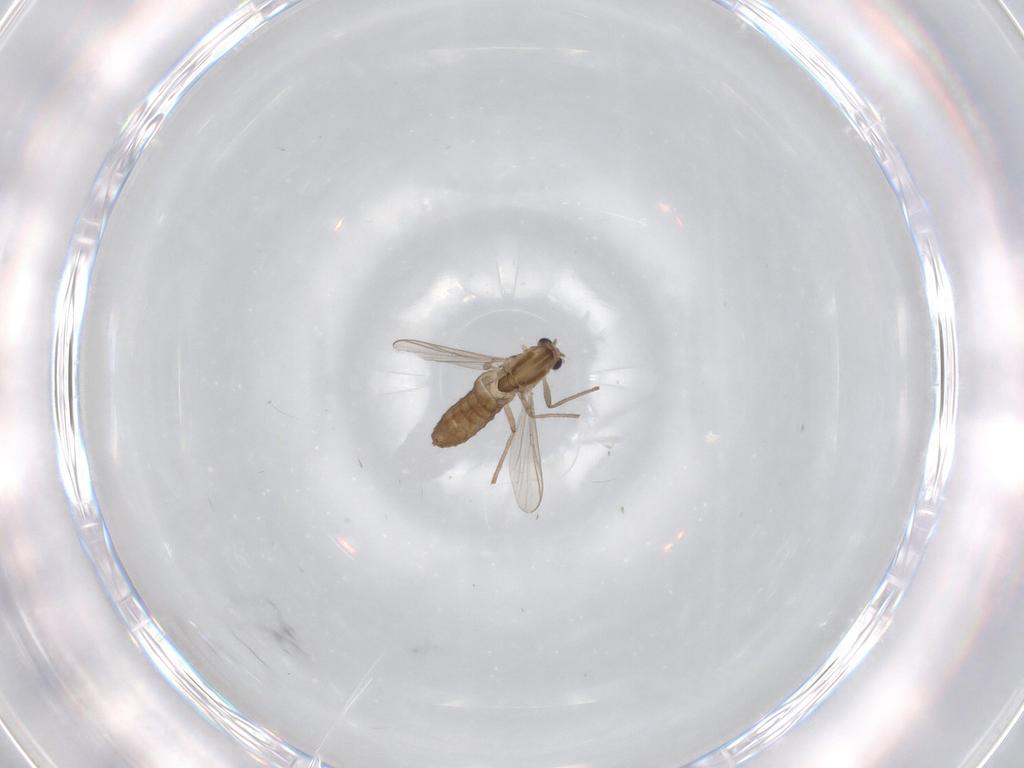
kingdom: Animalia
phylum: Arthropoda
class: Insecta
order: Diptera
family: Chironomidae
